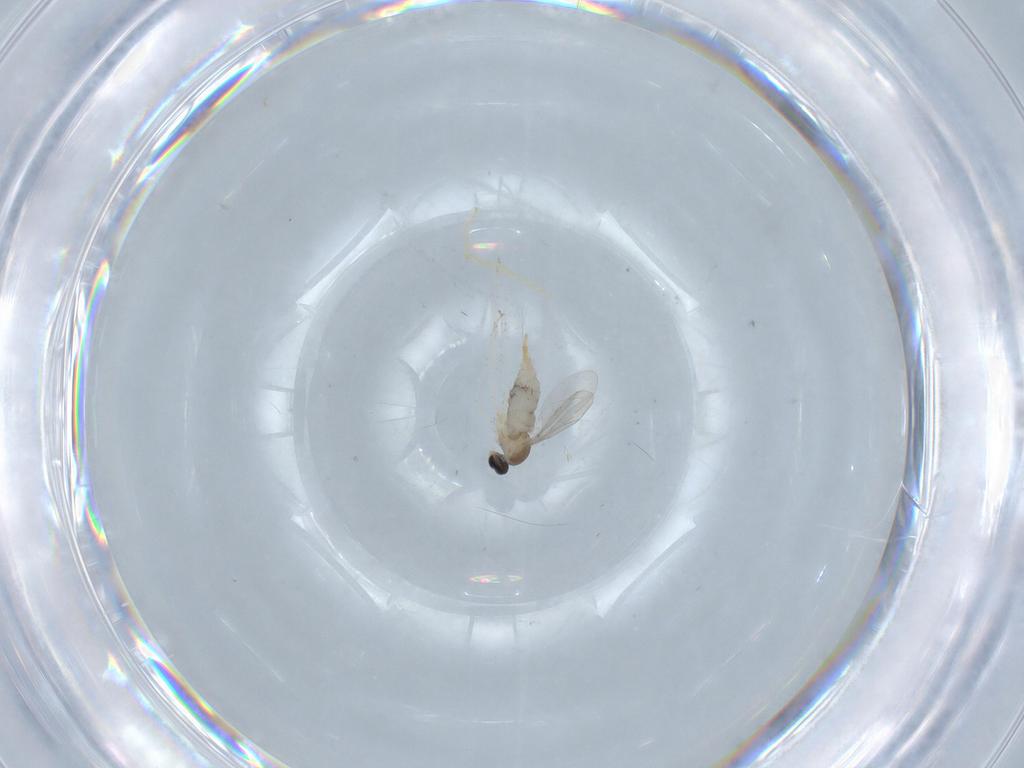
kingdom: Animalia
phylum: Arthropoda
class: Insecta
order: Diptera
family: Chironomidae
